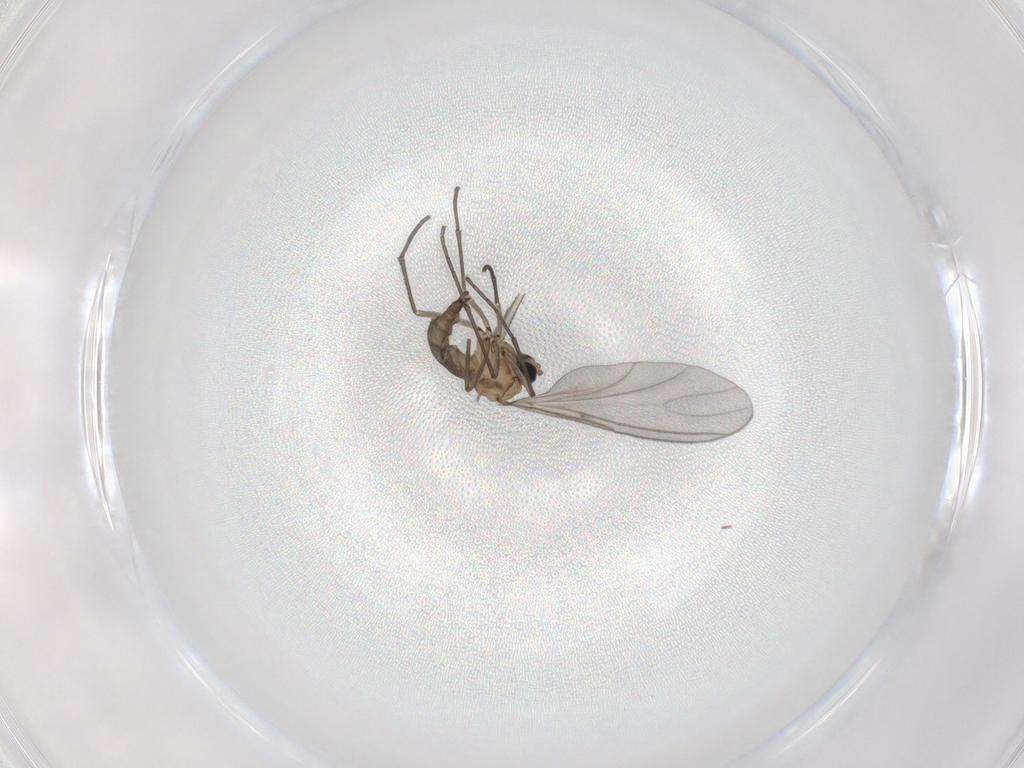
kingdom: Animalia
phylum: Arthropoda
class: Insecta
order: Diptera
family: Sciaridae
